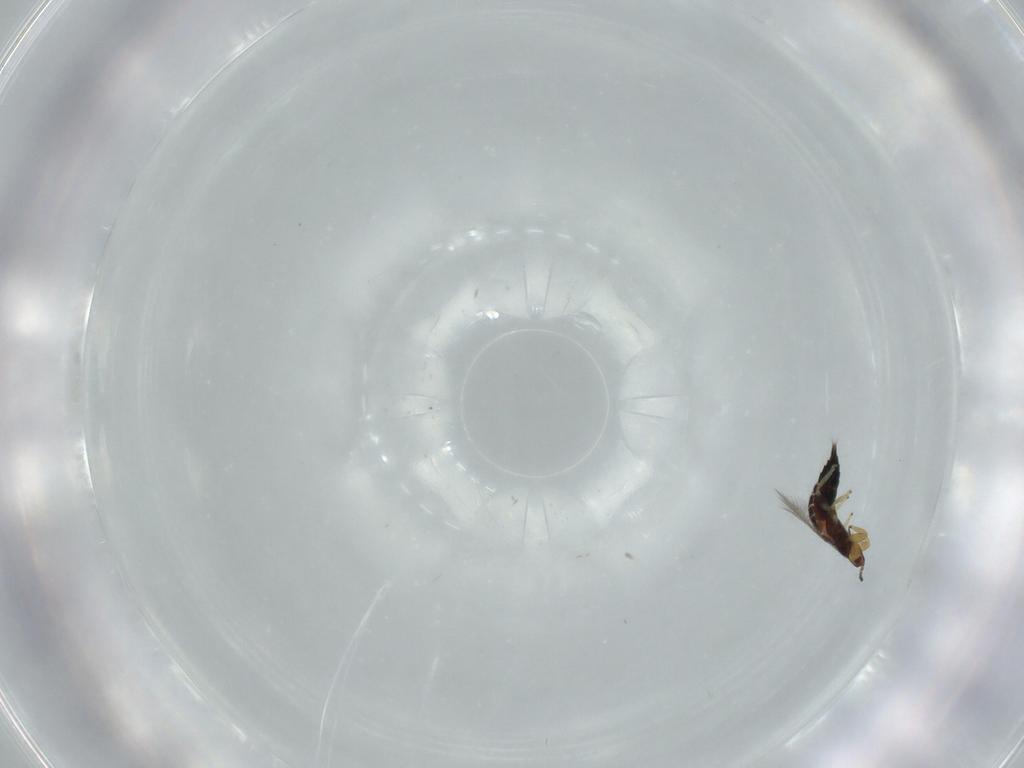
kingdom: Animalia
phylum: Arthropoda
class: Insecta
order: Thysanoptera
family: Phlaeothripidae
